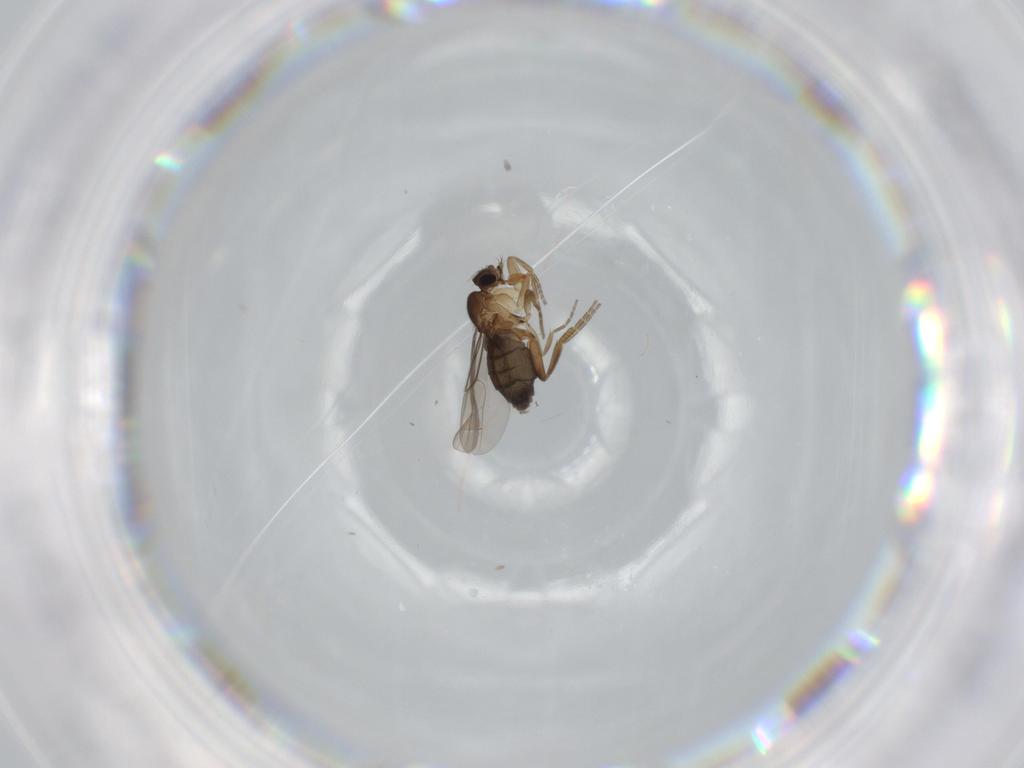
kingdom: Animalia
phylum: Arthropoda
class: Insecta
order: Diptera
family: Phoridae
